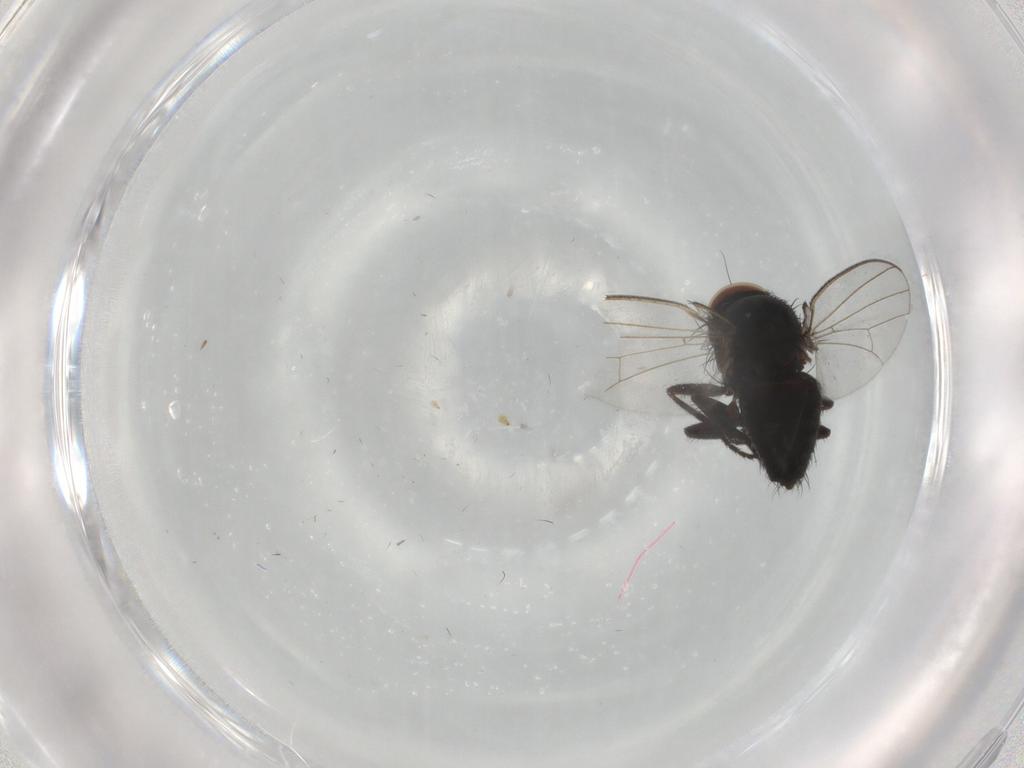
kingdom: Animalia
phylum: Arthropoda
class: Insecta
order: Diptera
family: Milichiidae
